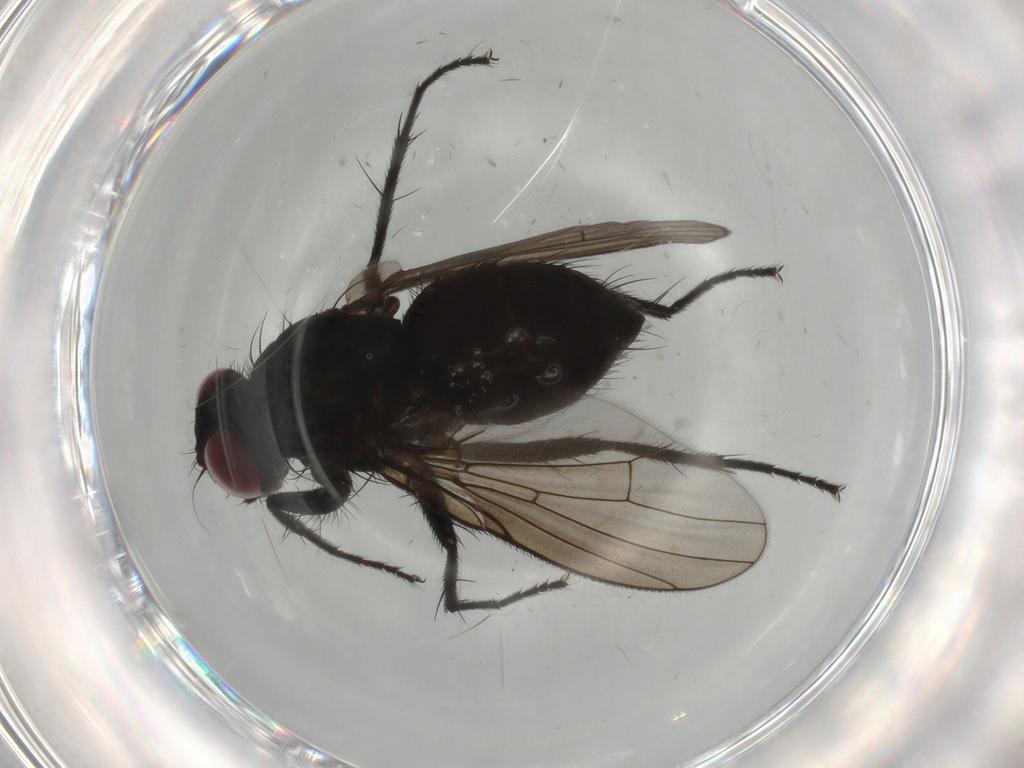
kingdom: Animalia
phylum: Arthropoda
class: Insecta
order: Diptera
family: Muscidae
